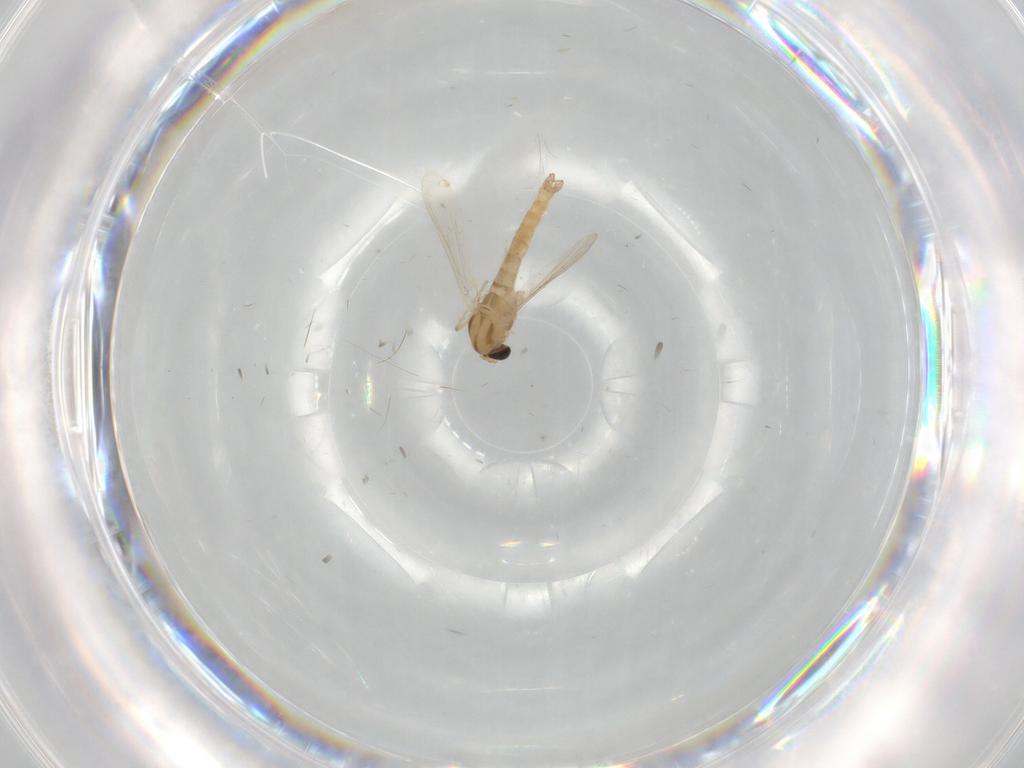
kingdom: Animalia
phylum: Arthropoda
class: Insecta
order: Diptera
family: Chironomidae
